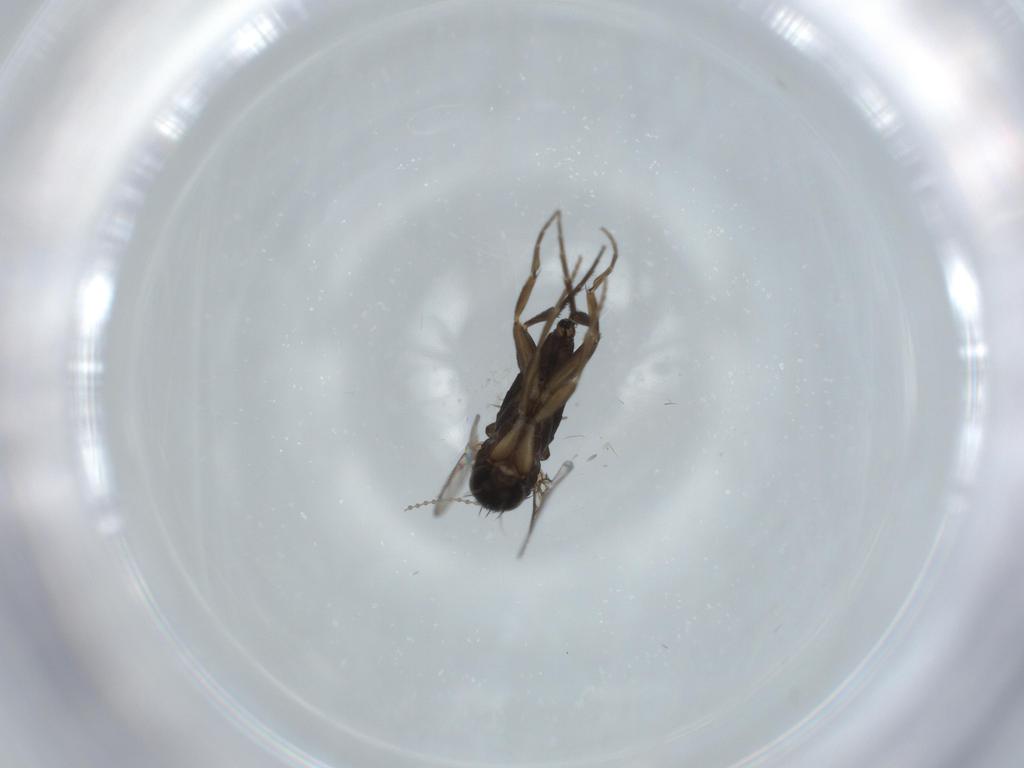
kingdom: Animalia
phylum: Arthropoda
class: Insecta
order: Diptera
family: Phoridae
